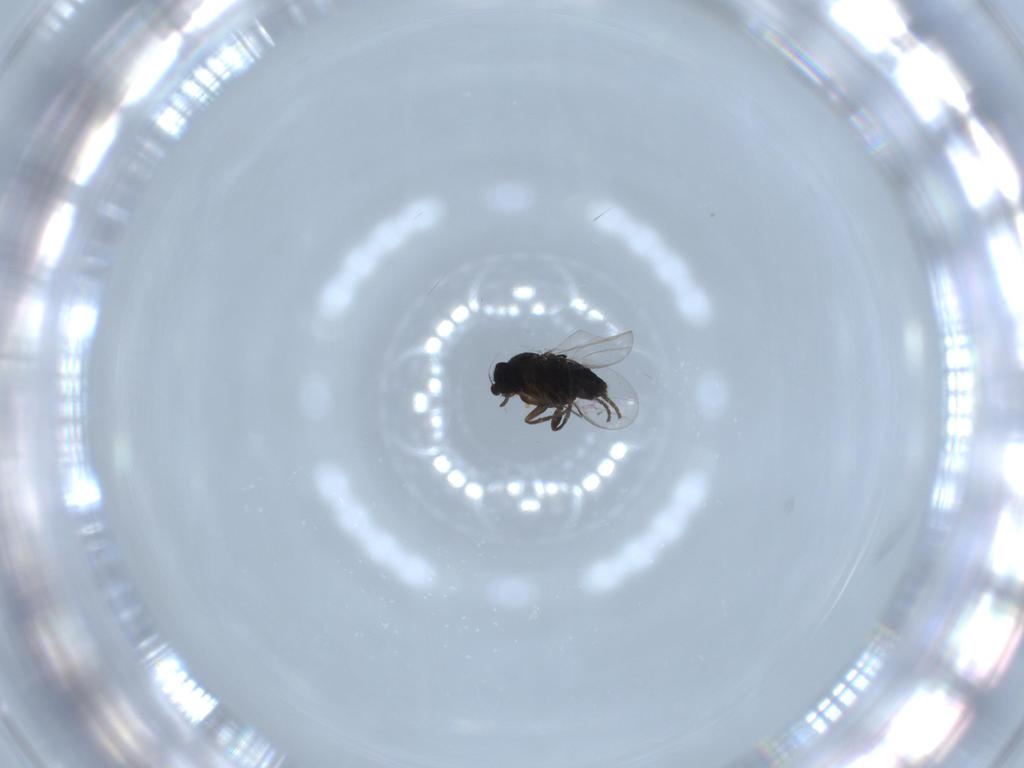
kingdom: Animalia
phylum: Arthropoda
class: Insecta
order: Diptera
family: Phoridae
